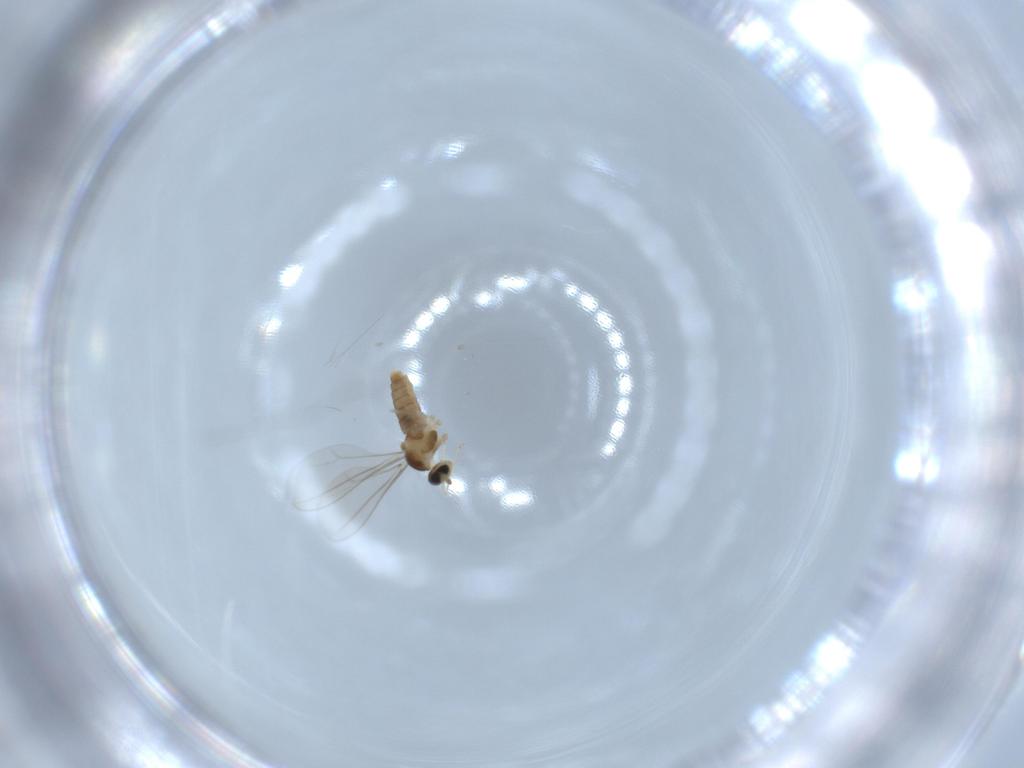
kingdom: Animalia
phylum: Arthropoda
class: Insecta
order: Diptera
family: Cecidomyiidae
